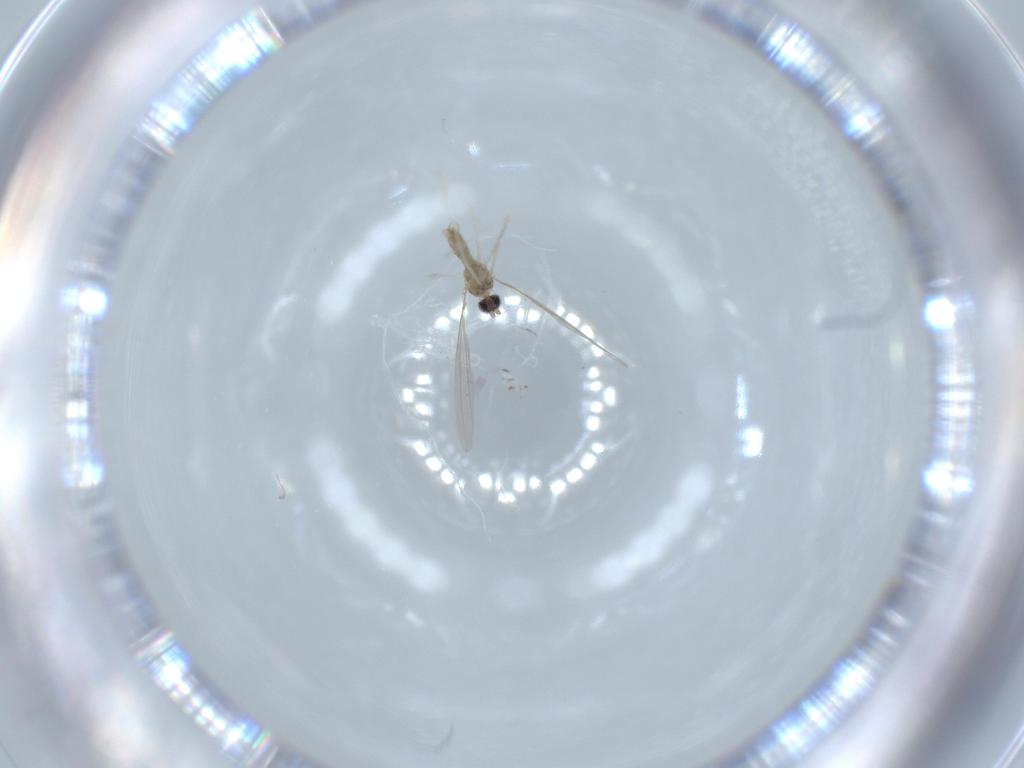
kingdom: Animalia
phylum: Arthropoda
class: Insecta
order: Diptera
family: Cecidomyiidae
